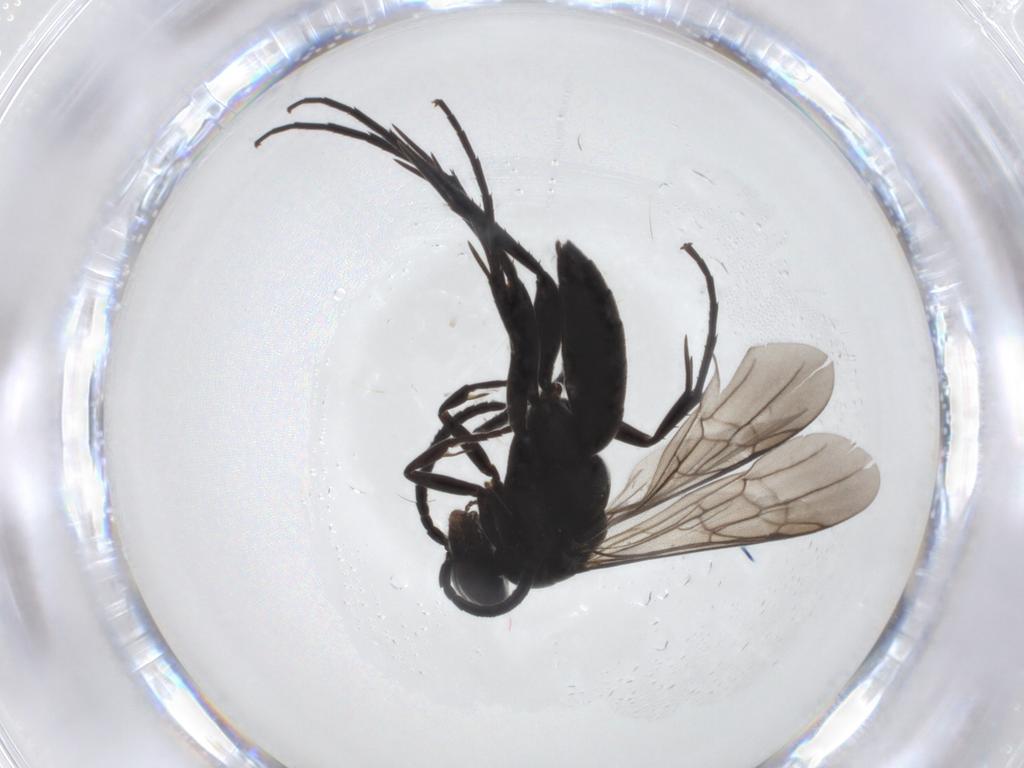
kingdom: Animalia
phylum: Arthropoda
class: Insecta
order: Hymenoptera
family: Pompilidae
